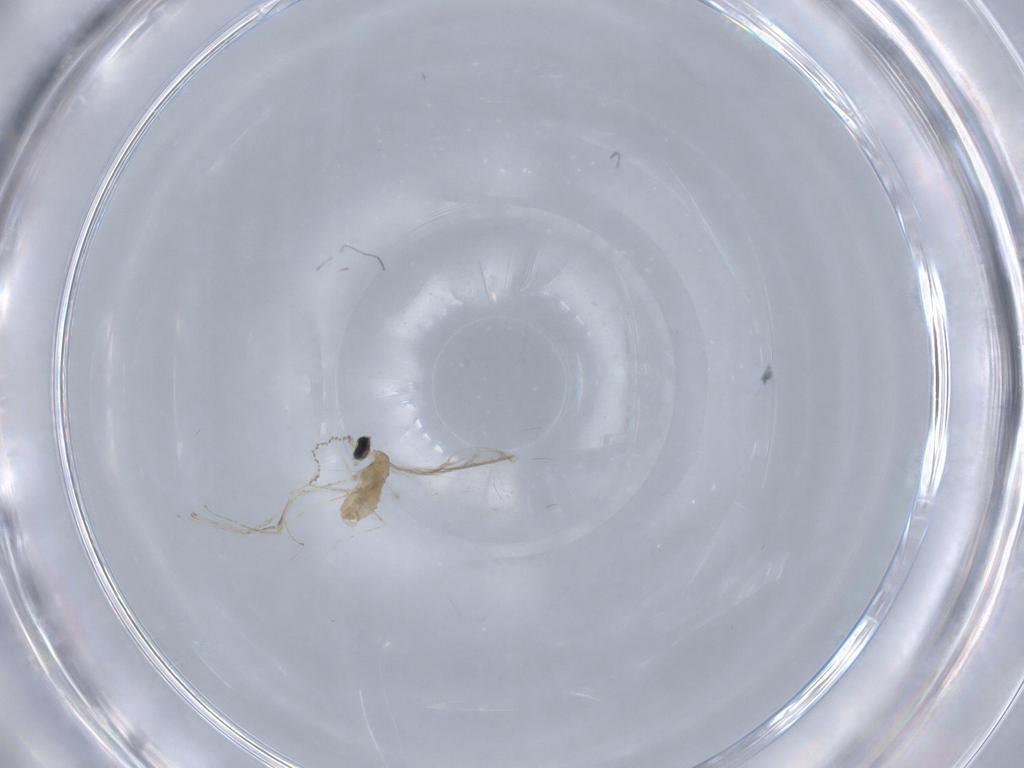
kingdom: Animalia
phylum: Arthropoda
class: Insecta
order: Diptera
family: Cecidomyiidae
